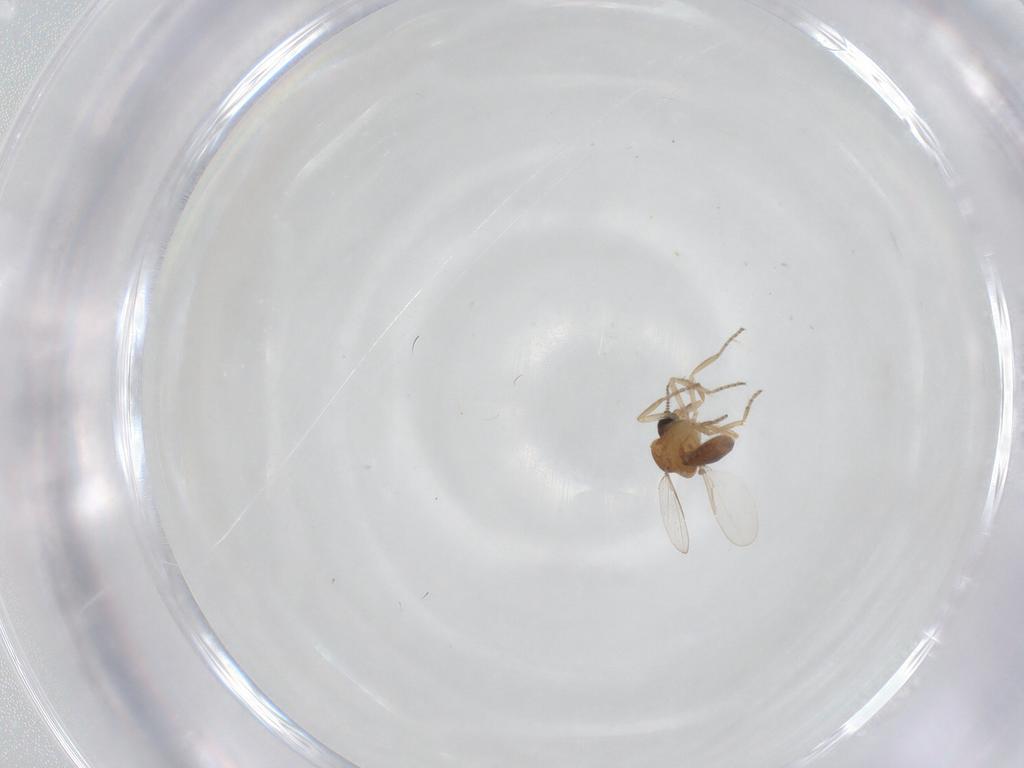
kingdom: Animalia
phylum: Arthropoda
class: Insecta
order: Diptera
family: Ceratopogonidae
